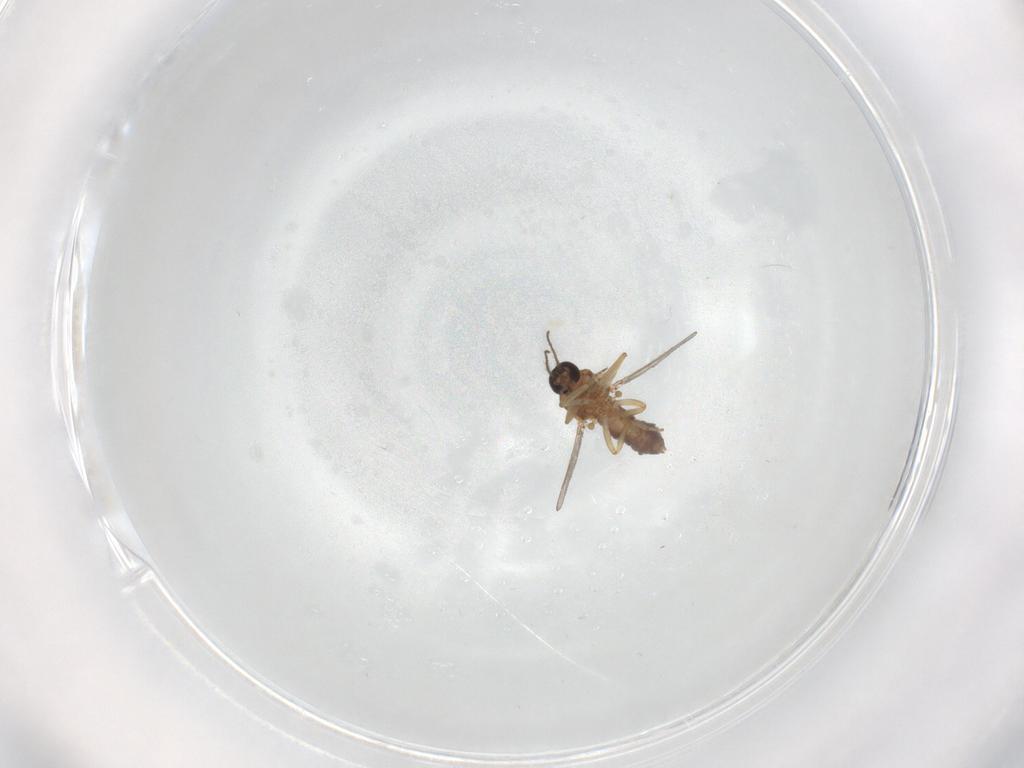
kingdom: Animalia
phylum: Arthropoda
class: Insecta
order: Diptera
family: Ceratopogonidae
